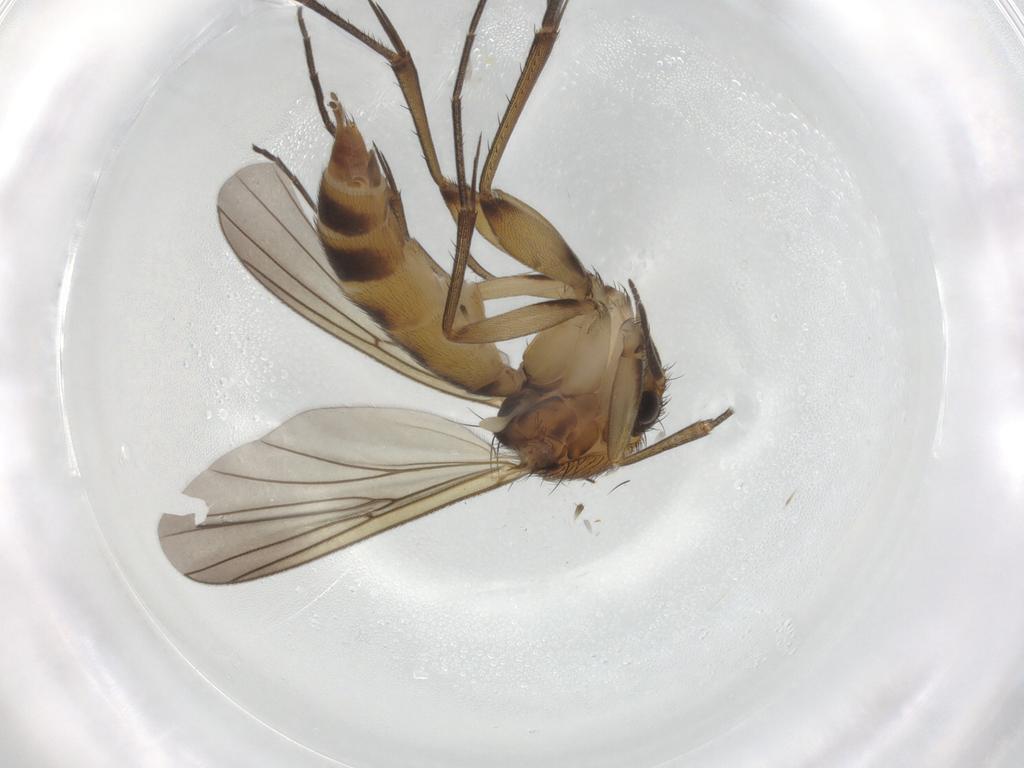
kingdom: Animalia
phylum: Arthropoda
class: Insecta
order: Diptera
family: Mycetophilidae
